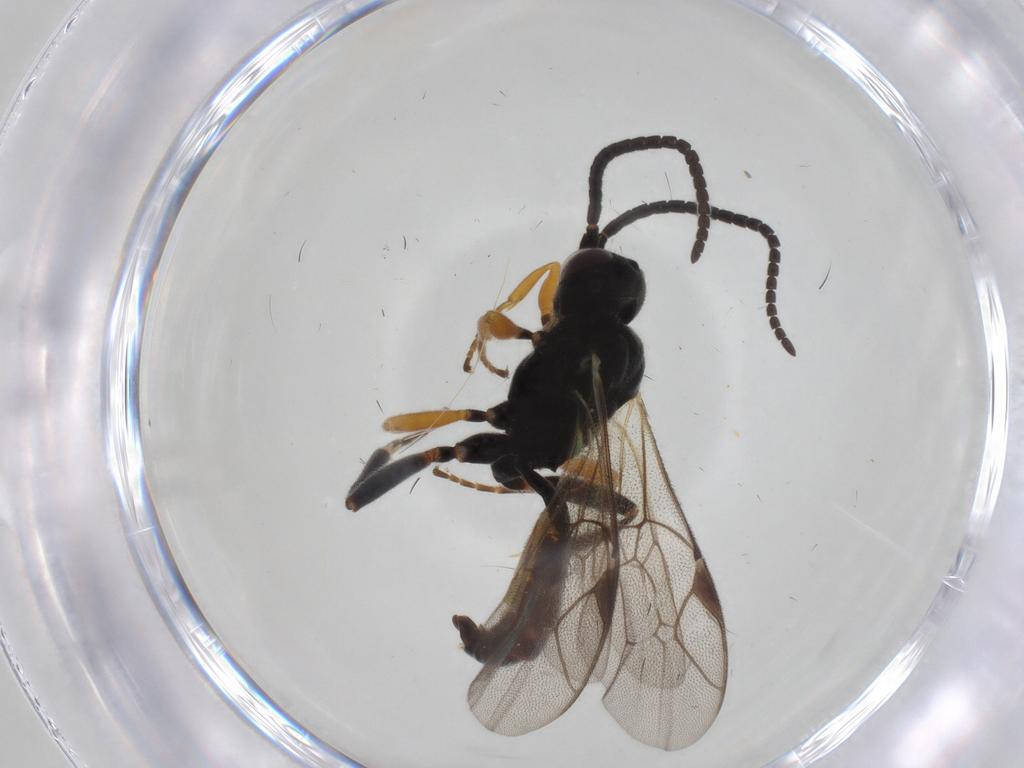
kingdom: Animalia
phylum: Arthropoda
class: Insecta
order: Hymenoptera
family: Ichneumonidae
